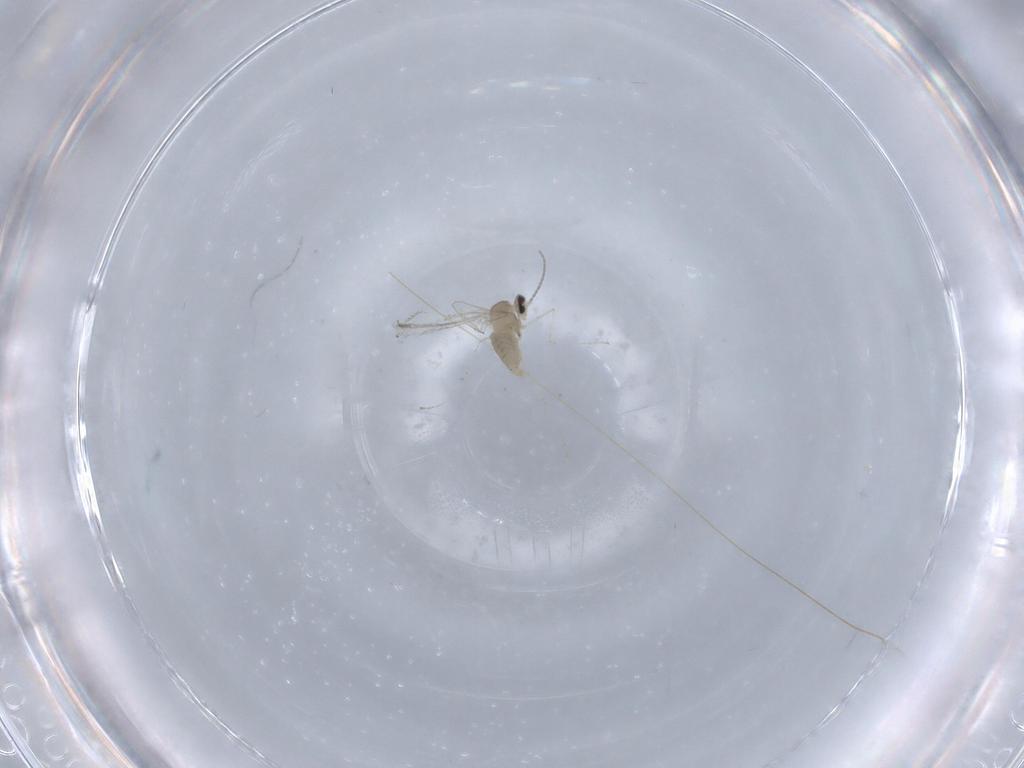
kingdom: Animalia
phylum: Arthropoda
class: Insecta
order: Diptera
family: Cecidomyiidae
